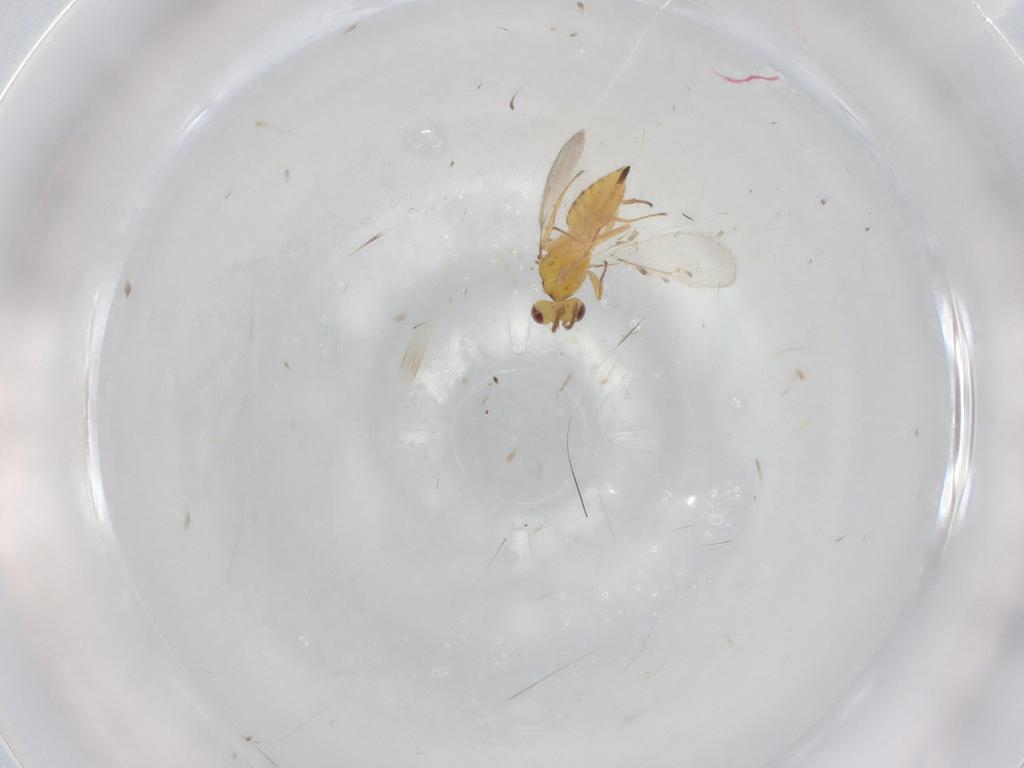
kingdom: Animalia
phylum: Arthropoda
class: Insecta
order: Hymenoptera
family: Eulophidae
